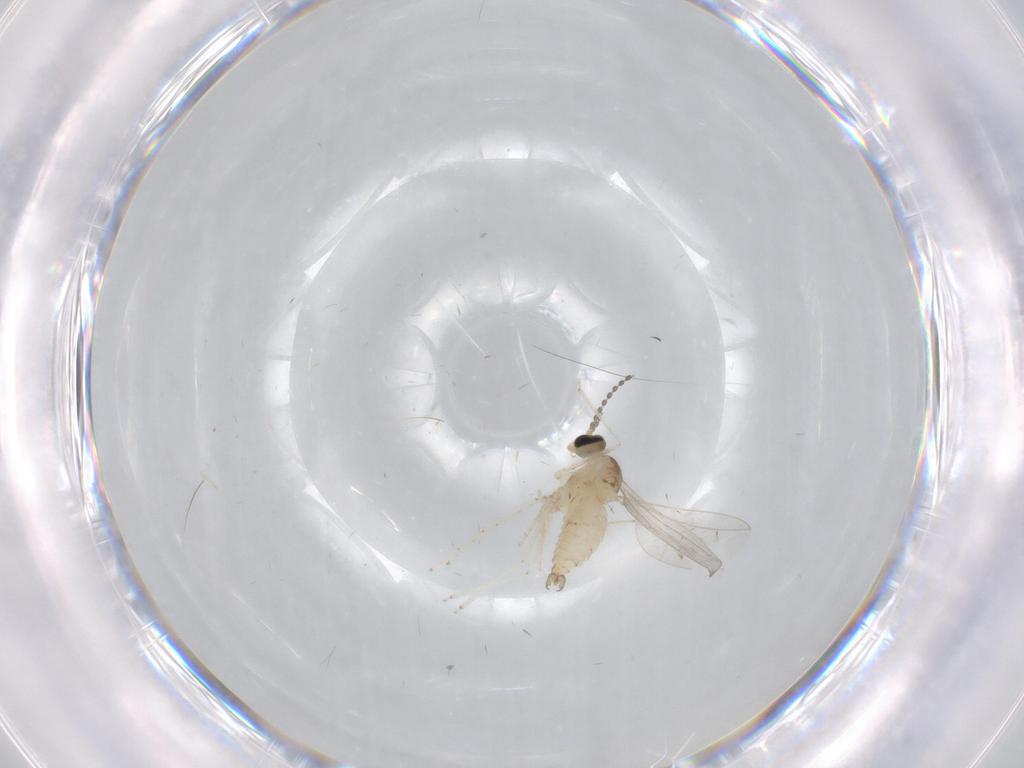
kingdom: Animalia
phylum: Arthropoda
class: Insecta
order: Diptera
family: Cecidomyiidae
